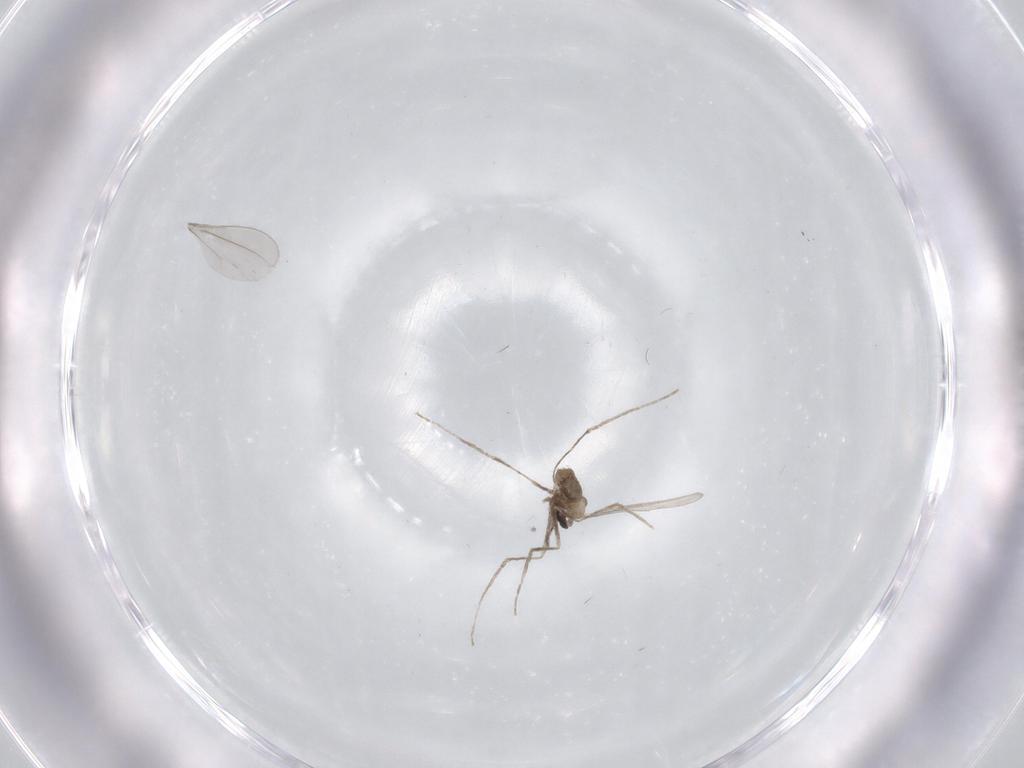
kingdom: Animalia
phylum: Arthropoda
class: Insecta
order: Diptera
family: Cecidomyiidae
